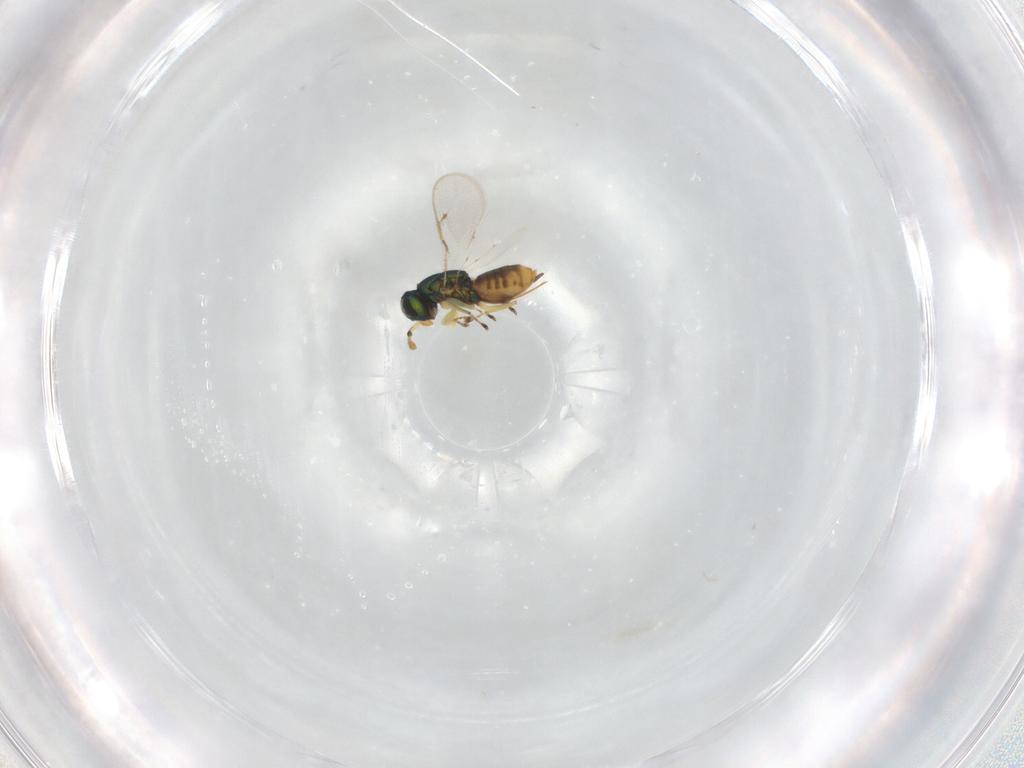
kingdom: Animalia
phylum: Arthropoda
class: Insecta
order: Hymenoptera
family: Eulophidae
